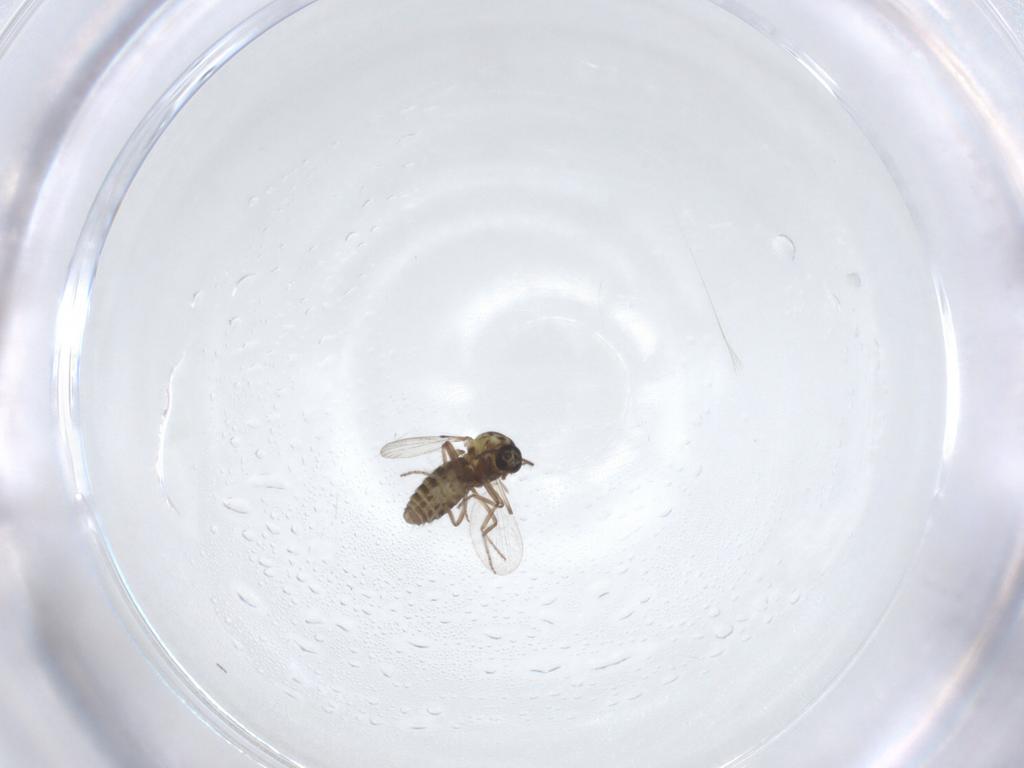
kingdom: Animalia
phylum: Arthropoda
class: Insecta
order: Diptera
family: Ceratopogonidae
